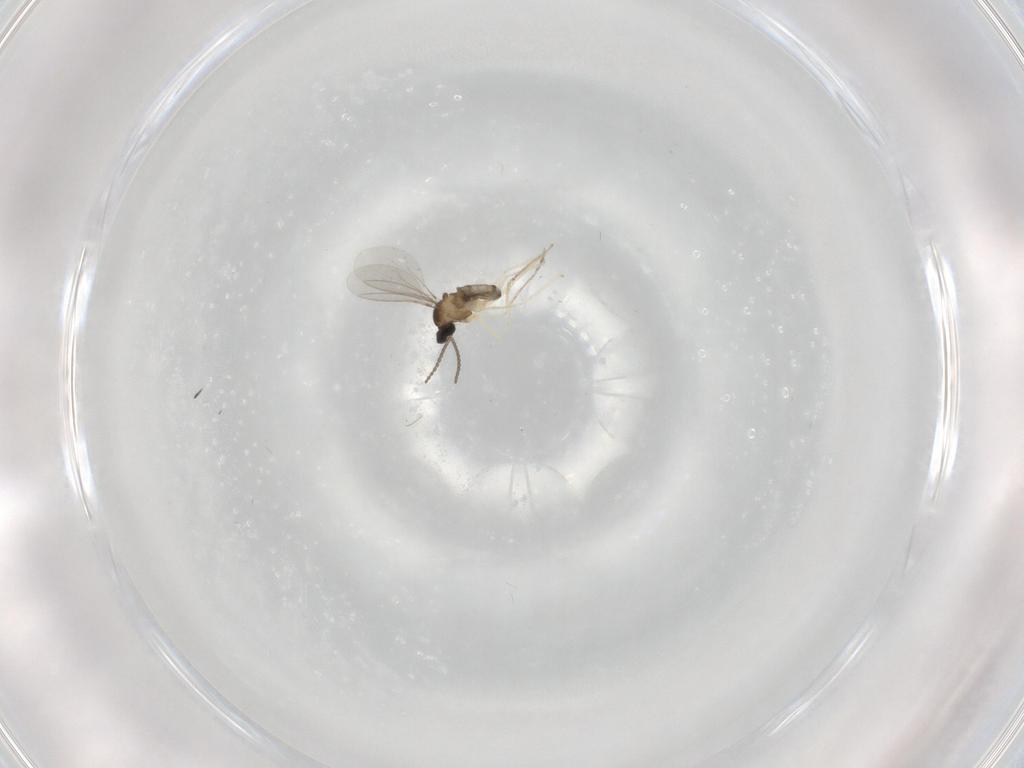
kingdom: Animalia
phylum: Arthropoda
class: Insecta
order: Diptera
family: Cecidomyiidae
